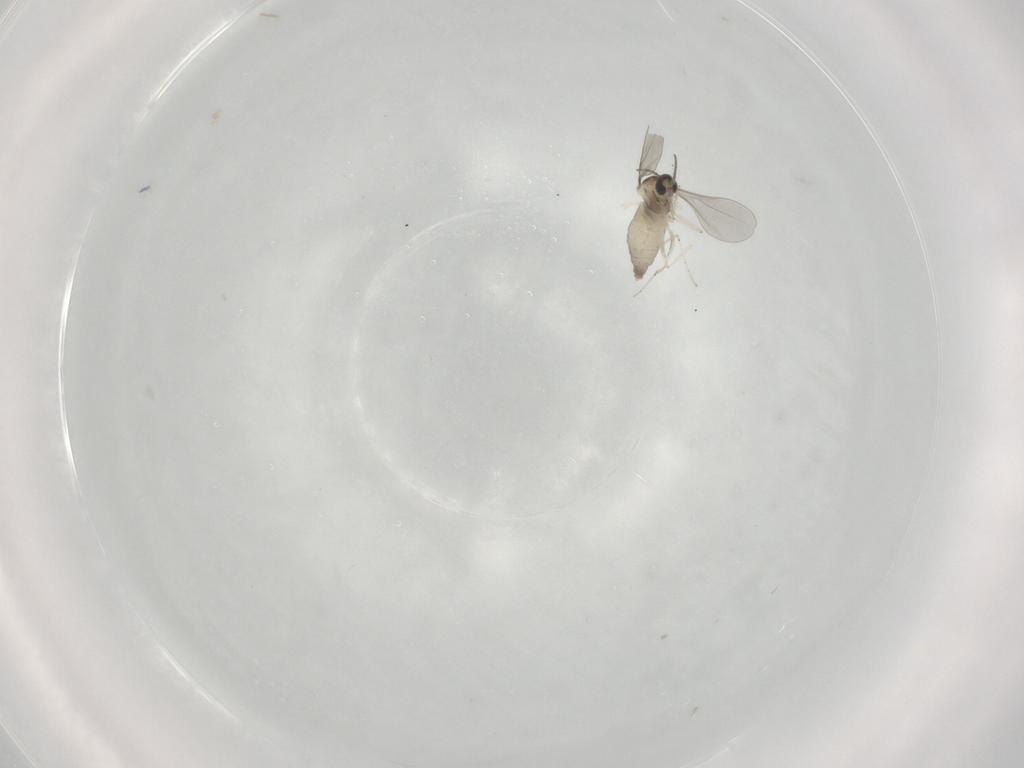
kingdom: Animalia
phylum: Arthropoda
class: Insecta
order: Diptera
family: Cecidomyiidae
